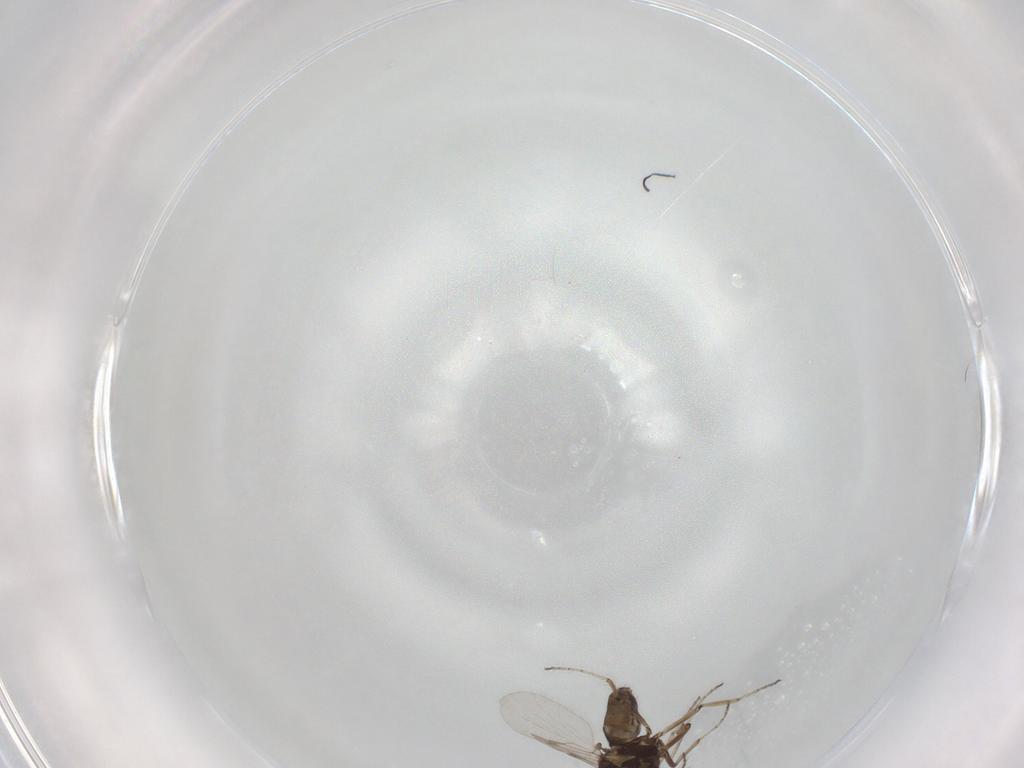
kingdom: Animalia
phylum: Arthropoda
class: Insecta
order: Diptera
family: Ceratopogonidae
